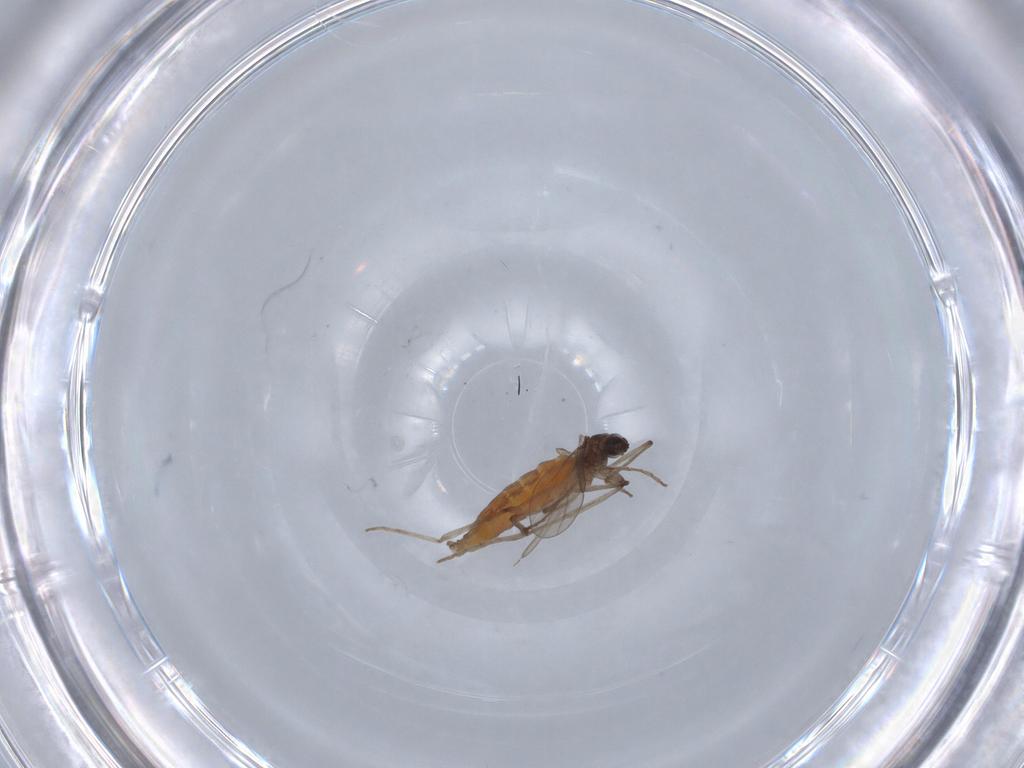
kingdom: Animalia
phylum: Arthropoda
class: Insecta
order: Diptera
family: Cecidomyiidae
